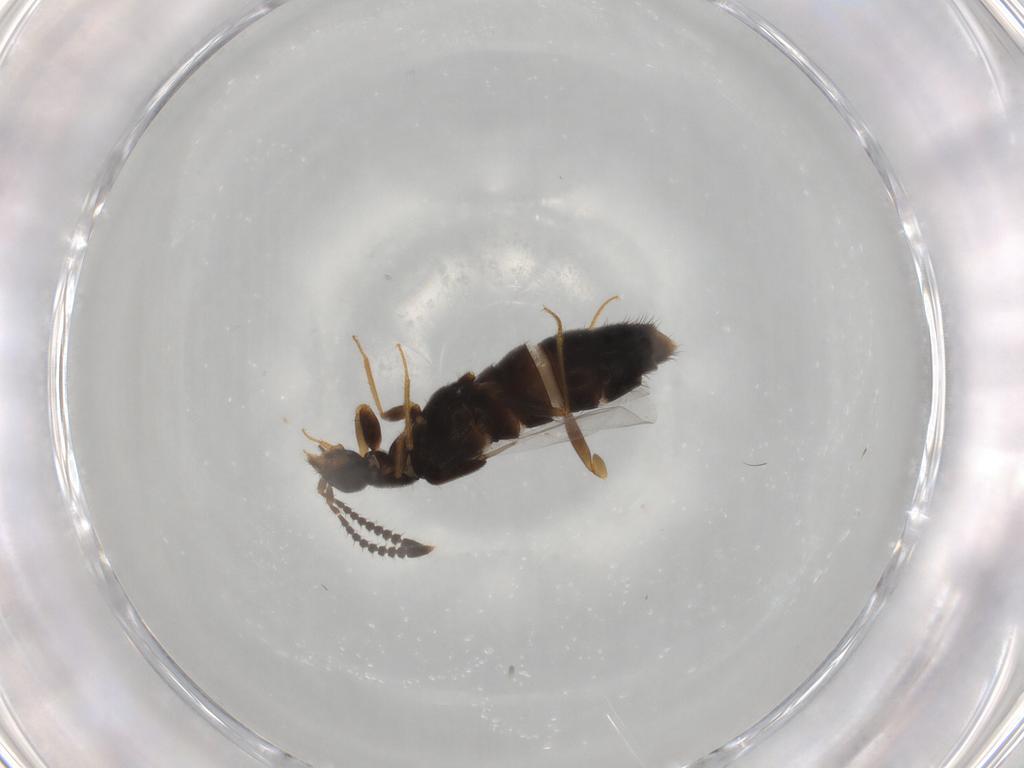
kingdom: Animalia
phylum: Arthropoda
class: Insecta
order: Coleoptera
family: Staphylinidae
